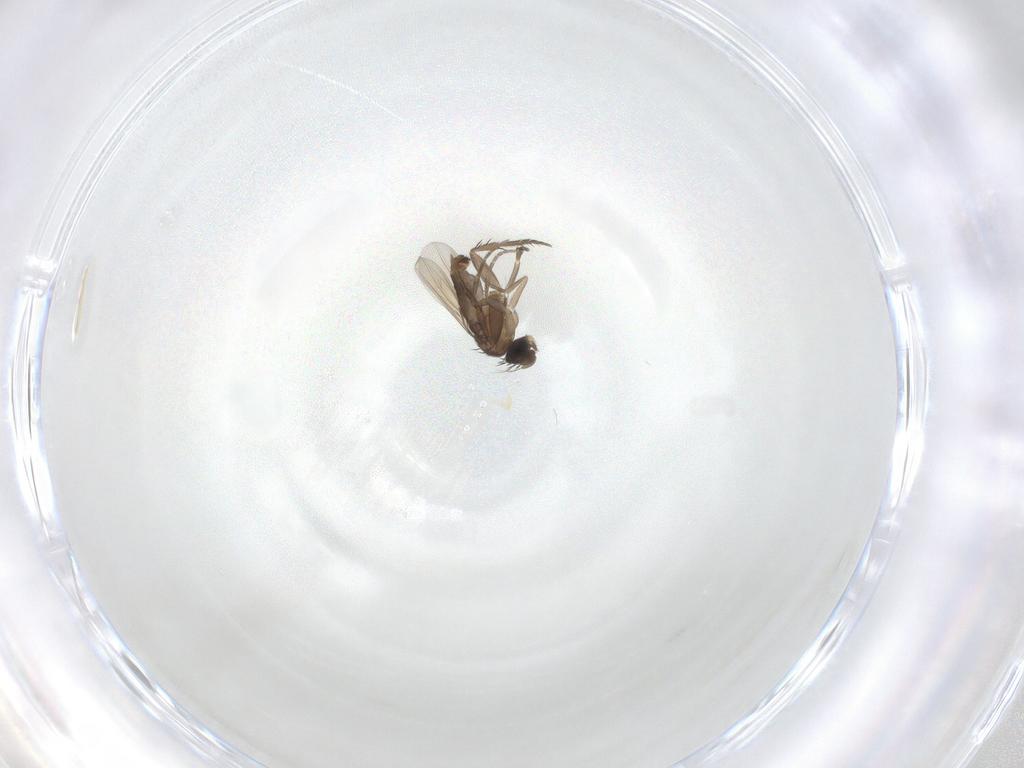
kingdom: Animalia
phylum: Arthropoda
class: Insecta
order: Diptera
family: Phoridae
